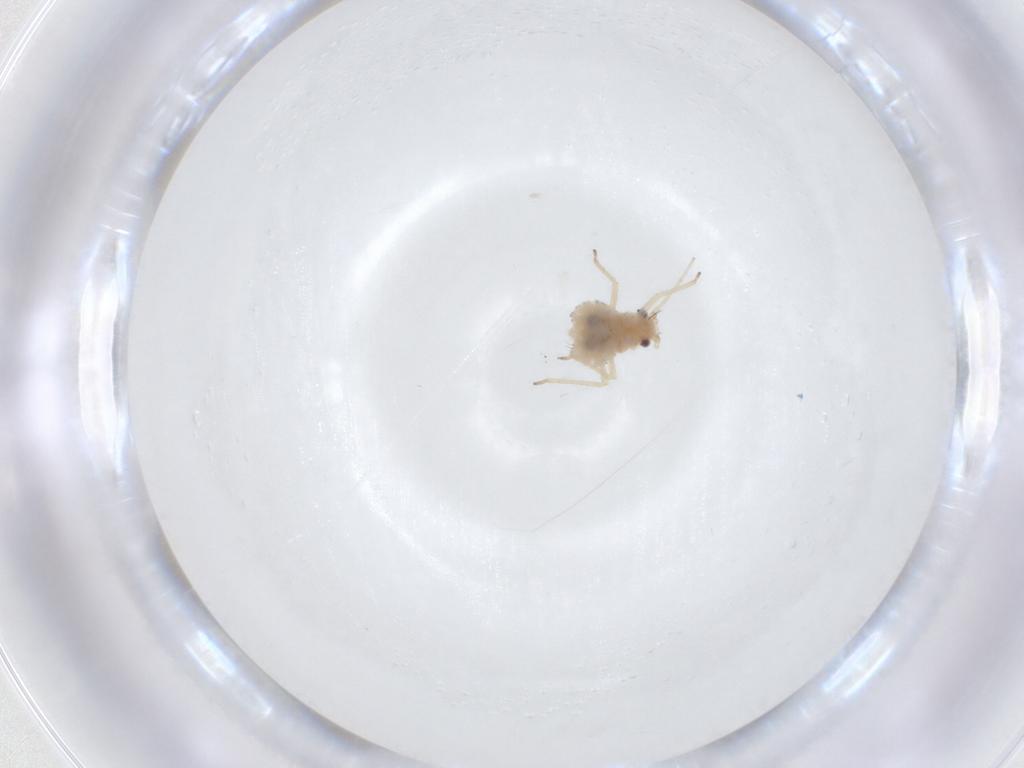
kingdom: Animalia
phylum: Arthropoda
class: Insecta
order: Hemiptera
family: Aphididae
